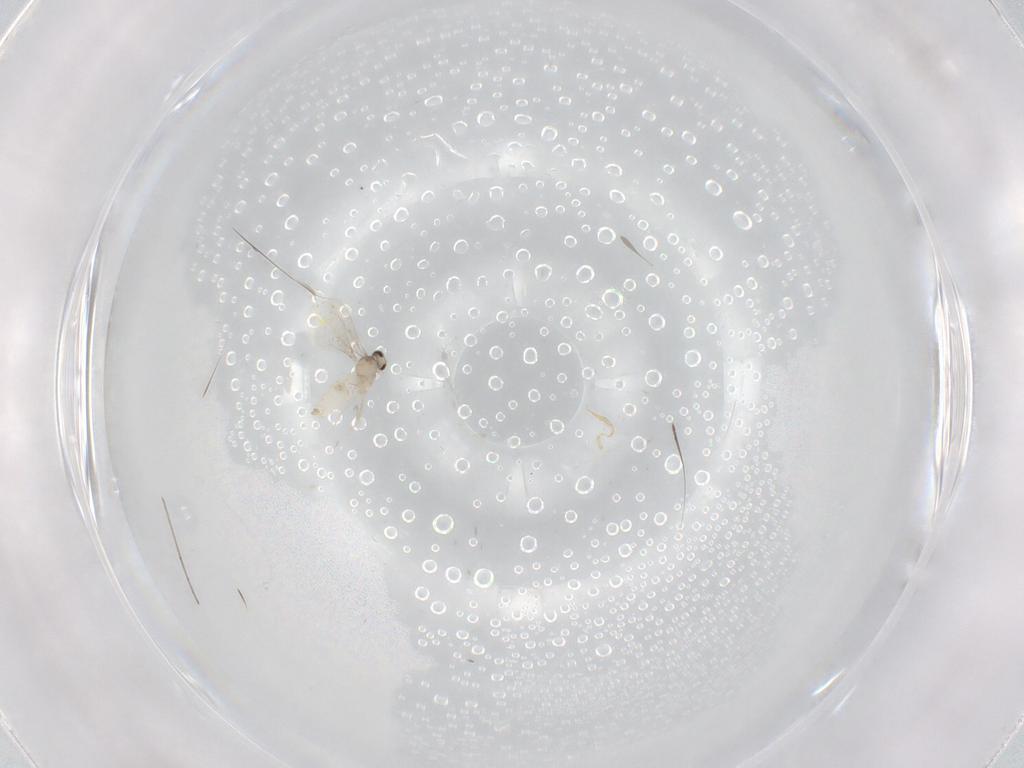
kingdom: Animalia
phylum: Arthropoda
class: Insecta
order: Diptera
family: Cecidomyiidae
